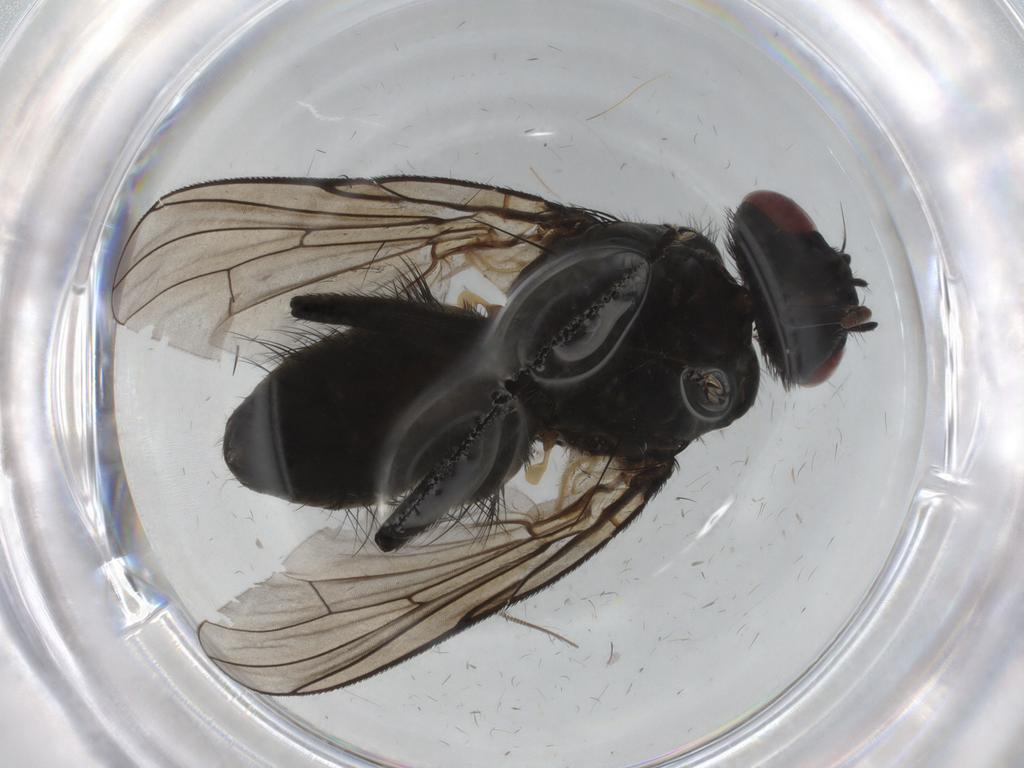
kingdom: Animalia
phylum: Arthropoda
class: Insecta
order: Diptera
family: Muscidae
